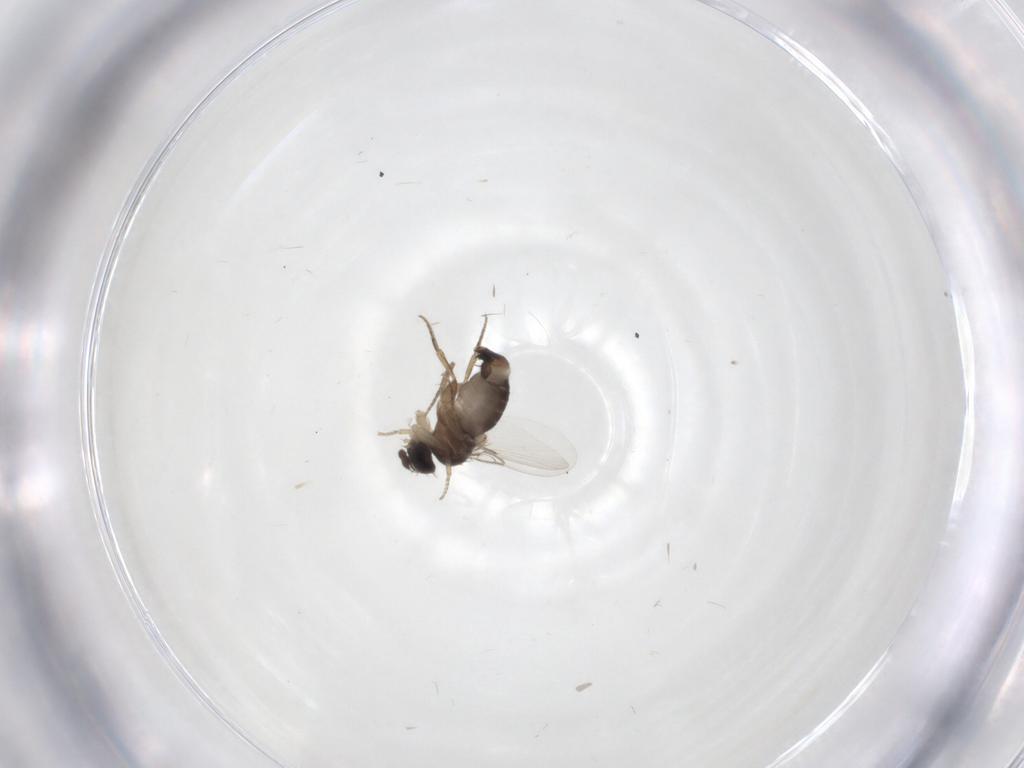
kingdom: Animalia
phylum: Arthropoda
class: Insecta
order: Diptera
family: Phoridae
